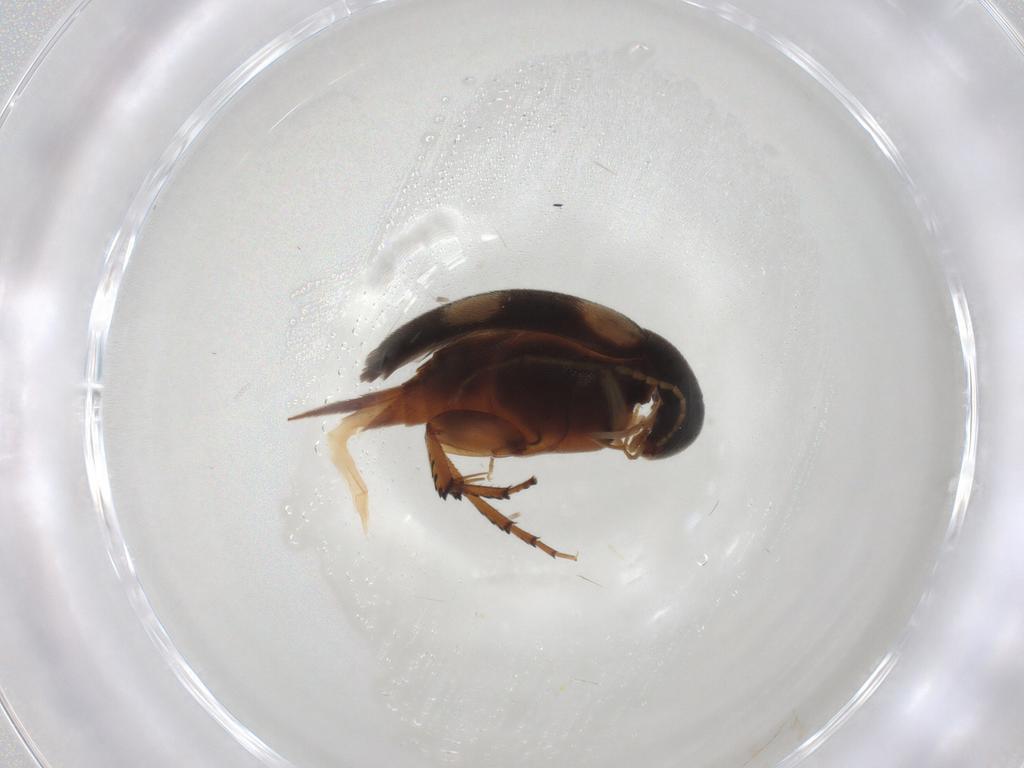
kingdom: Animalia
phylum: Arthropoda
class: Insecta
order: Coleoptera
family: Mordellidae
